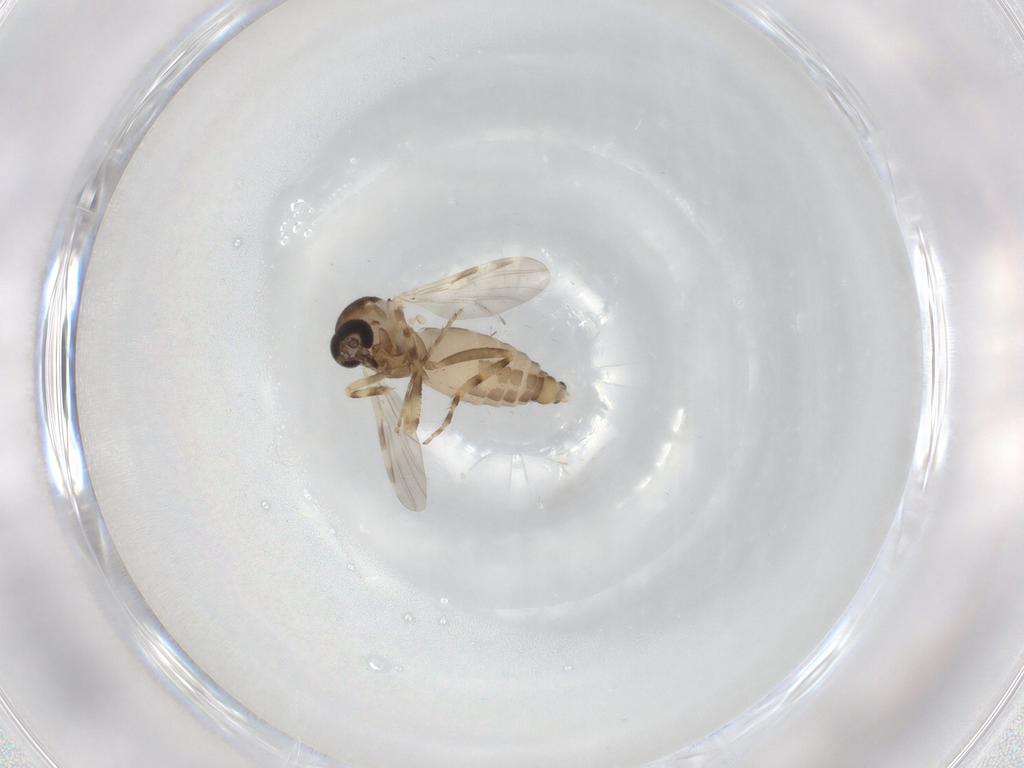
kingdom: Animalia
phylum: Arthropoda
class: Insecta
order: Diptera
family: Ceratopogonidae
